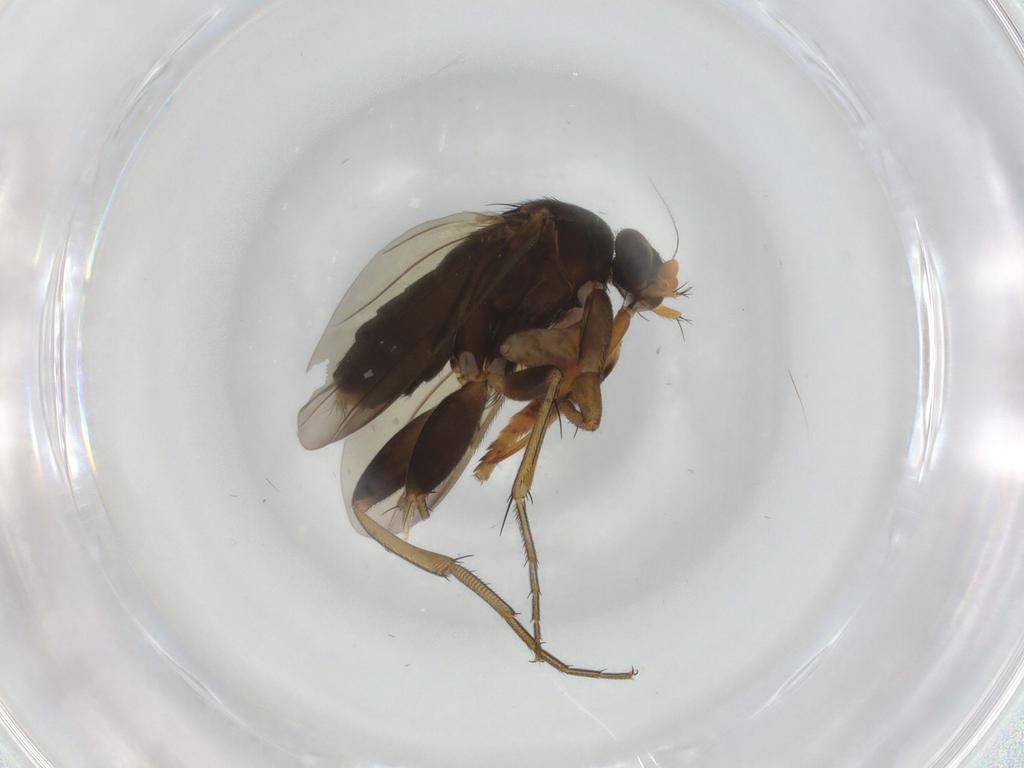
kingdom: Animalia
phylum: Arthropoda
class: Insecta
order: Diptera
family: Phoridae
